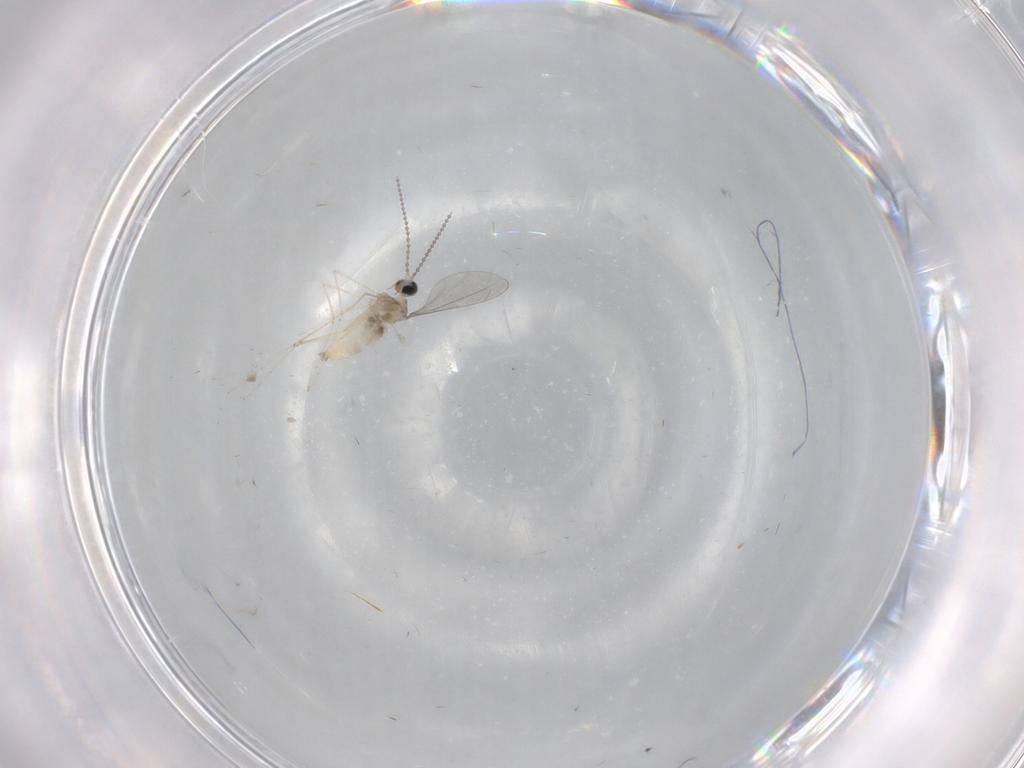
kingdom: Animalia
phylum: Arthropoda
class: Insecta
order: Diptera
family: Cecidomyiidae
